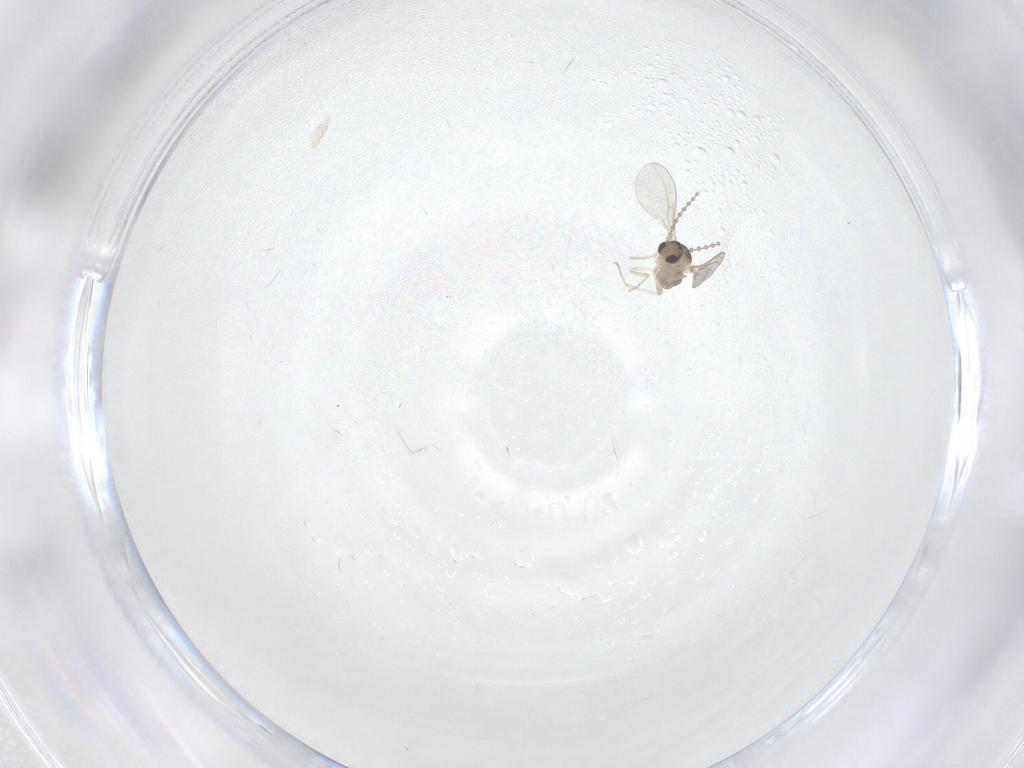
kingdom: Animalia
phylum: Arthropoda
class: Insecta
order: Diptera
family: Cecidomyiidae
